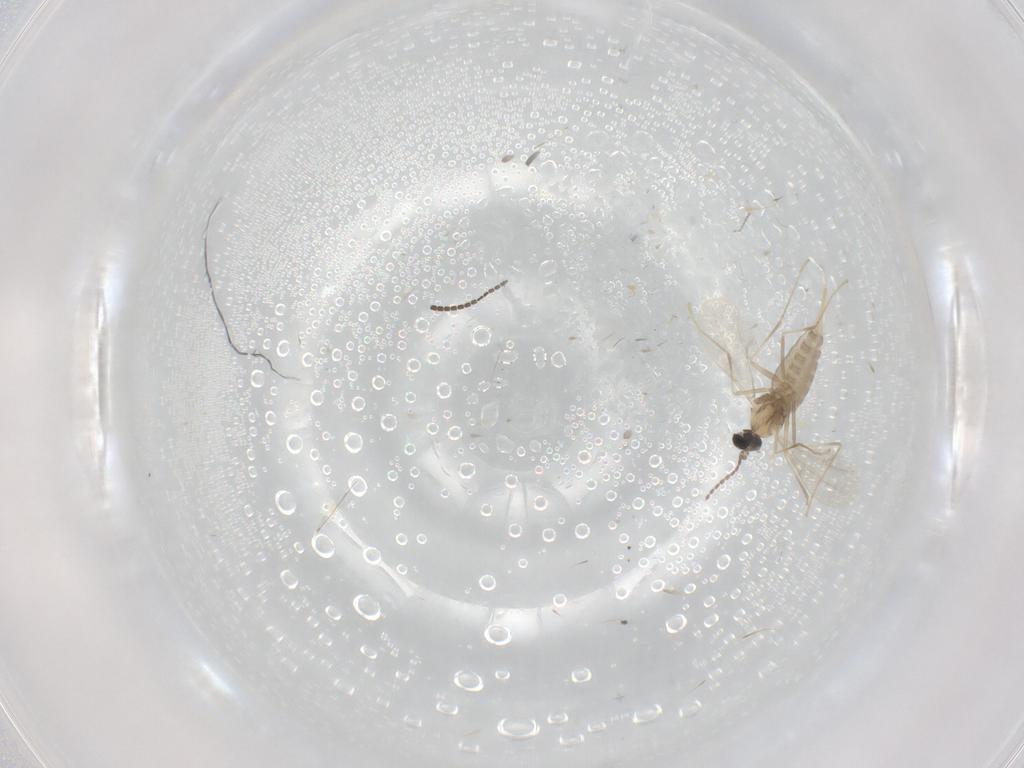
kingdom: Animalia
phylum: Arthropoda
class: Insecta
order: Diptera
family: Cecidomyiidae
